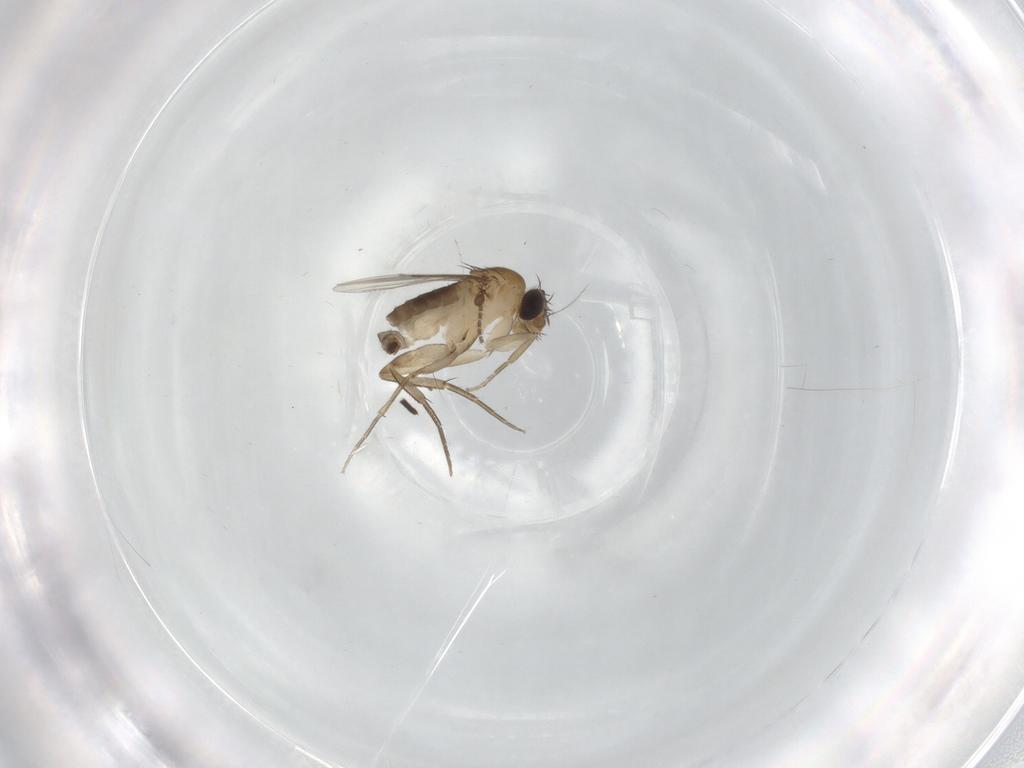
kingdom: Animalia
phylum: Arthropoda
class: Insecta
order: Diptera
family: Phoridae
